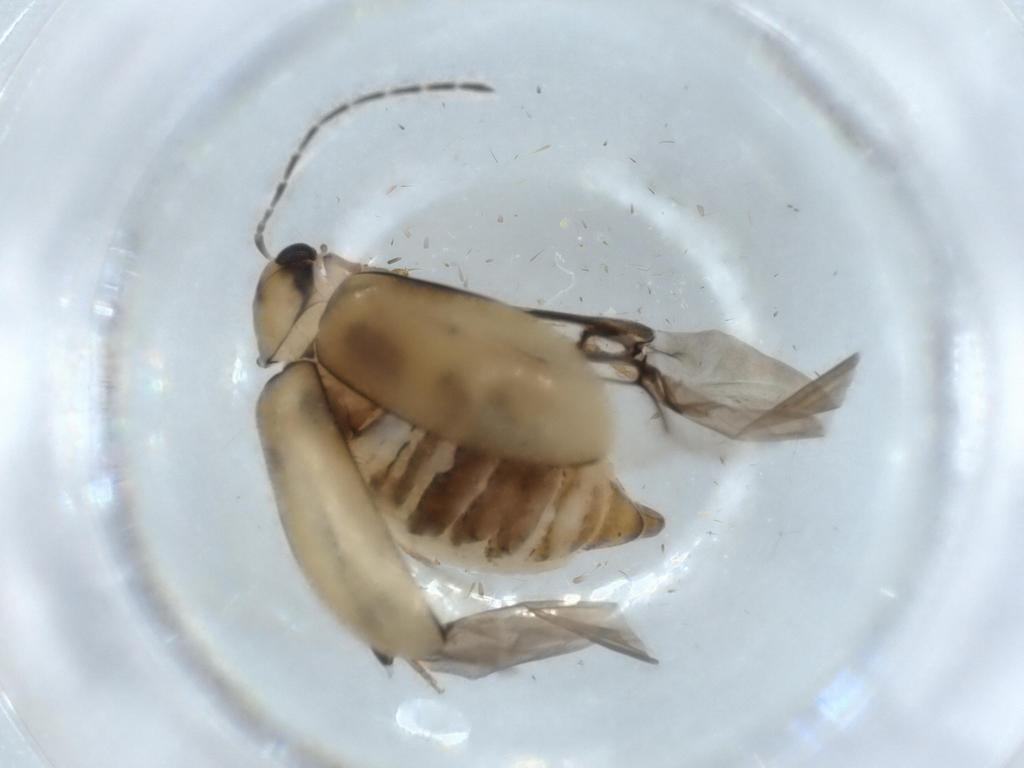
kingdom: Animalia
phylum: Arthropoda
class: Insecta
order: Coleoptera
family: Chrysomelidae
